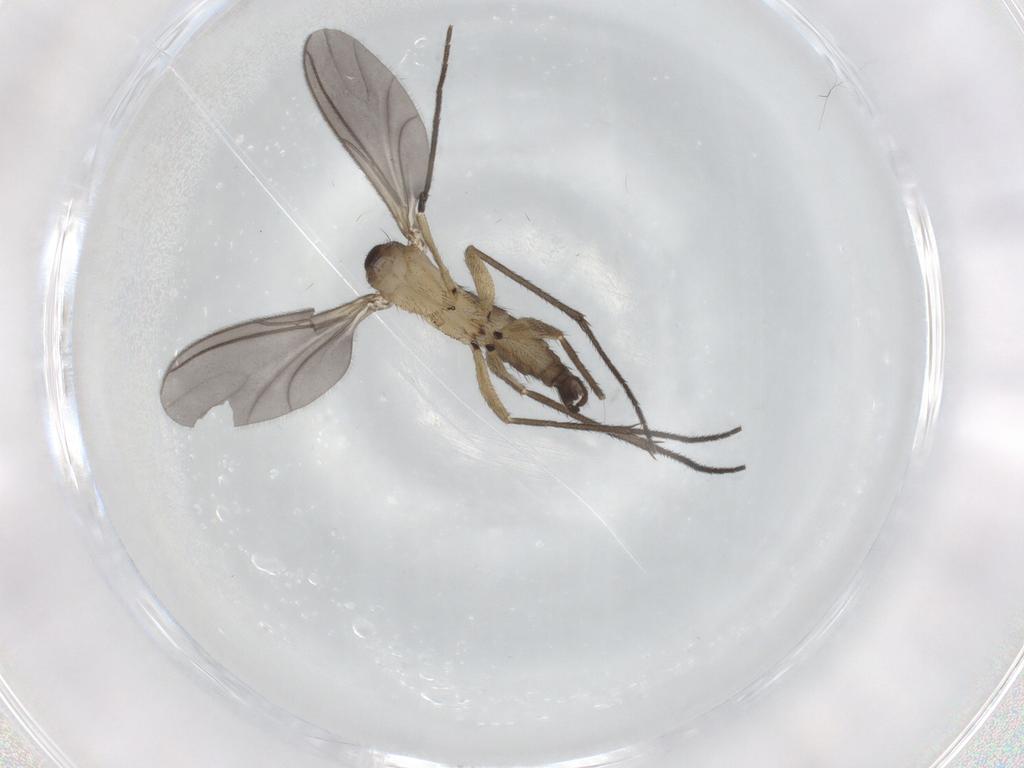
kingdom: Animalia
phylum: Arthropoda
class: Insecta
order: Diptera
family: Sciaridae
